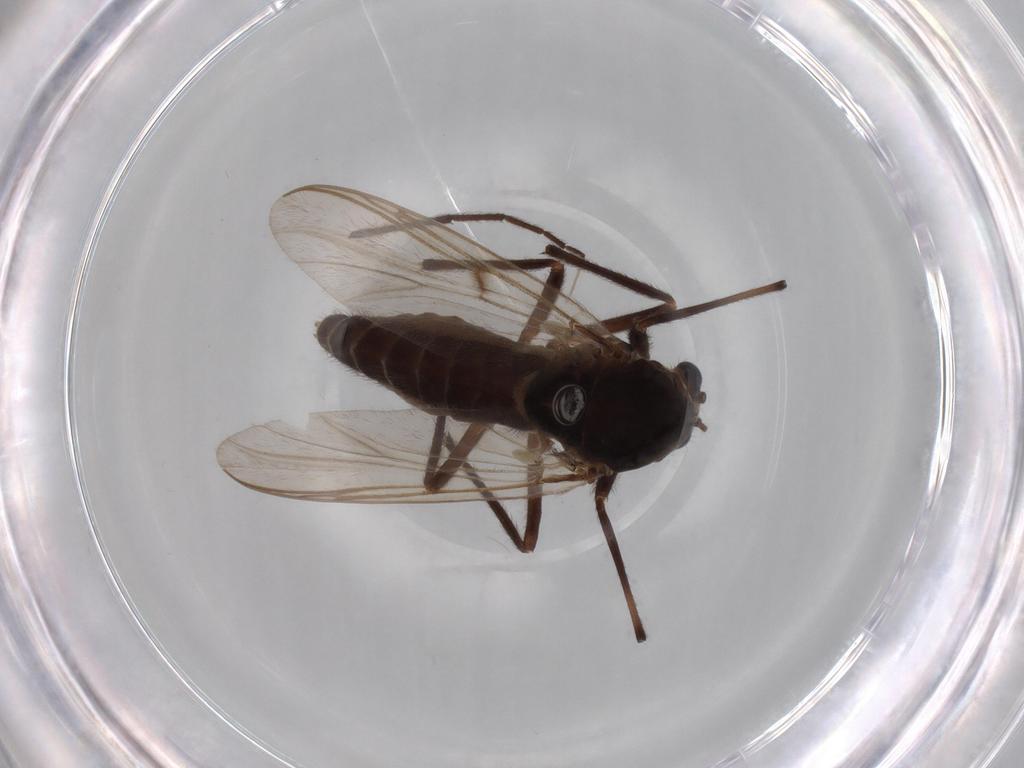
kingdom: Animalia
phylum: Arthropoda
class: Insecta
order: Diptera
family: Chironomidae
